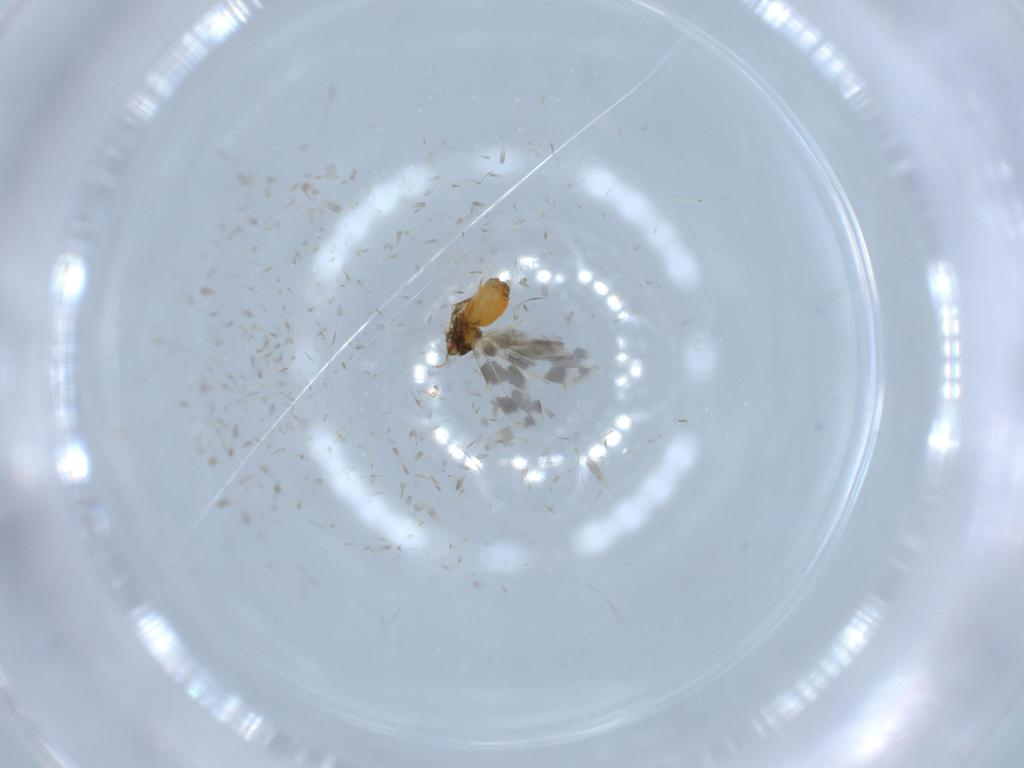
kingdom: Animalia
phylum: Arthropoda
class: Insecta
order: Hemiptera
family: Aleyrodidae
